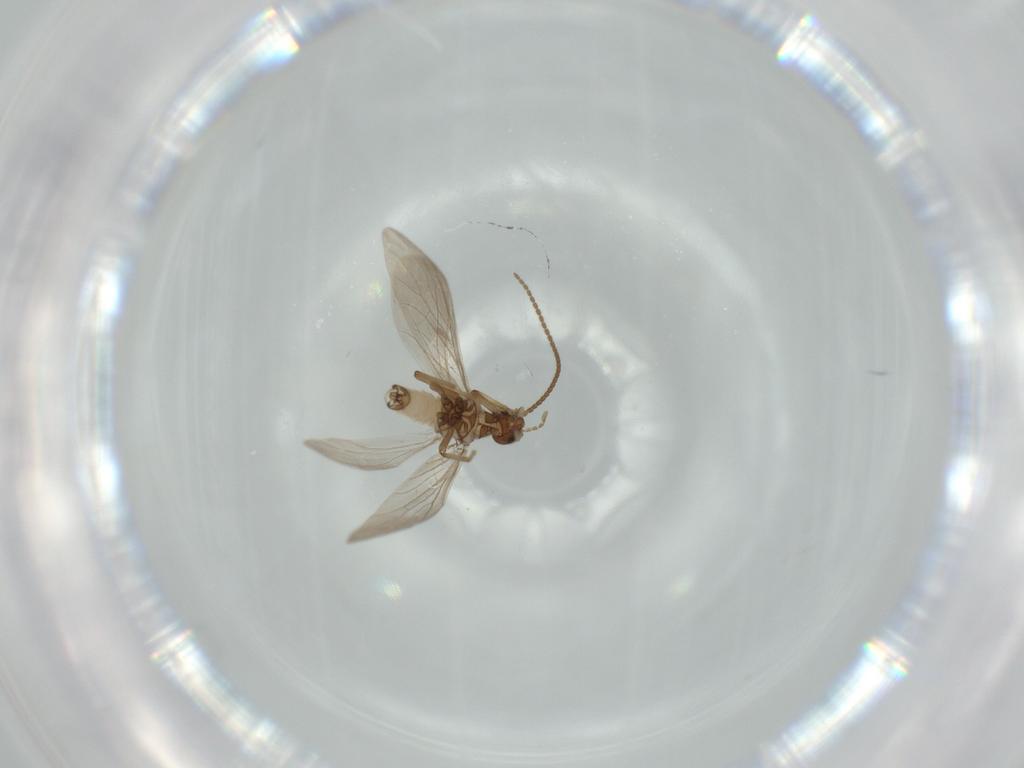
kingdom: Animalia
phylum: Arthropoda
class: Insecta
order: Neuroptera
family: Coniopterygidae
